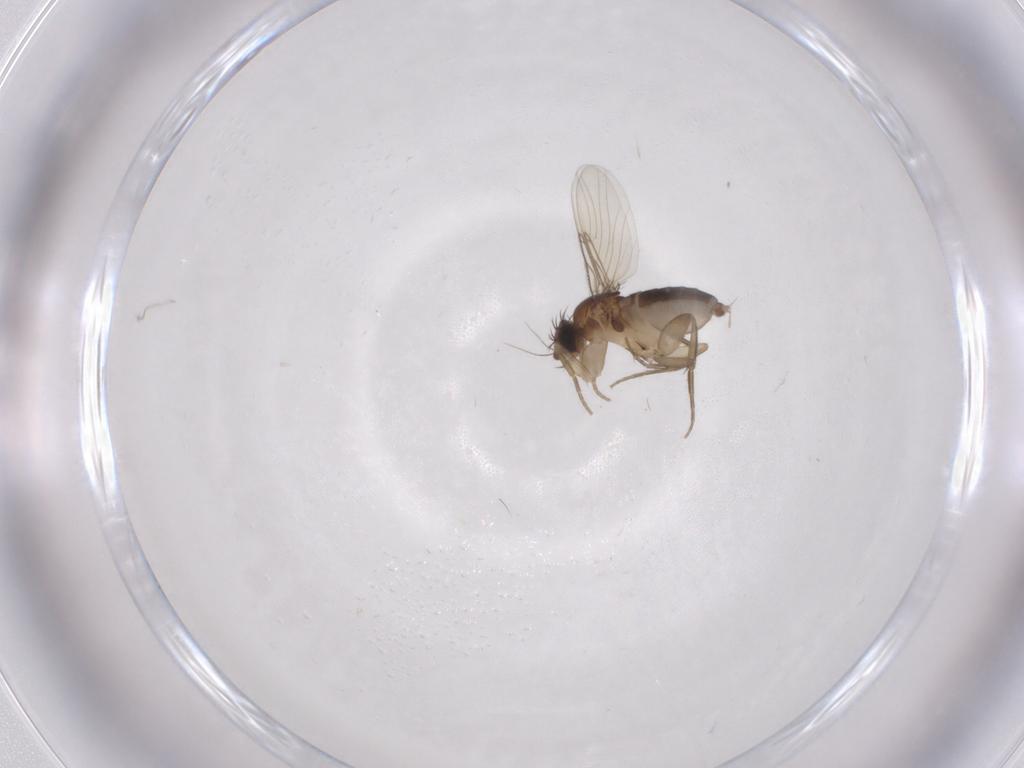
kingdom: Animalia
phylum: Arthropoda
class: Insecta
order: Diptera
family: Phoridae
